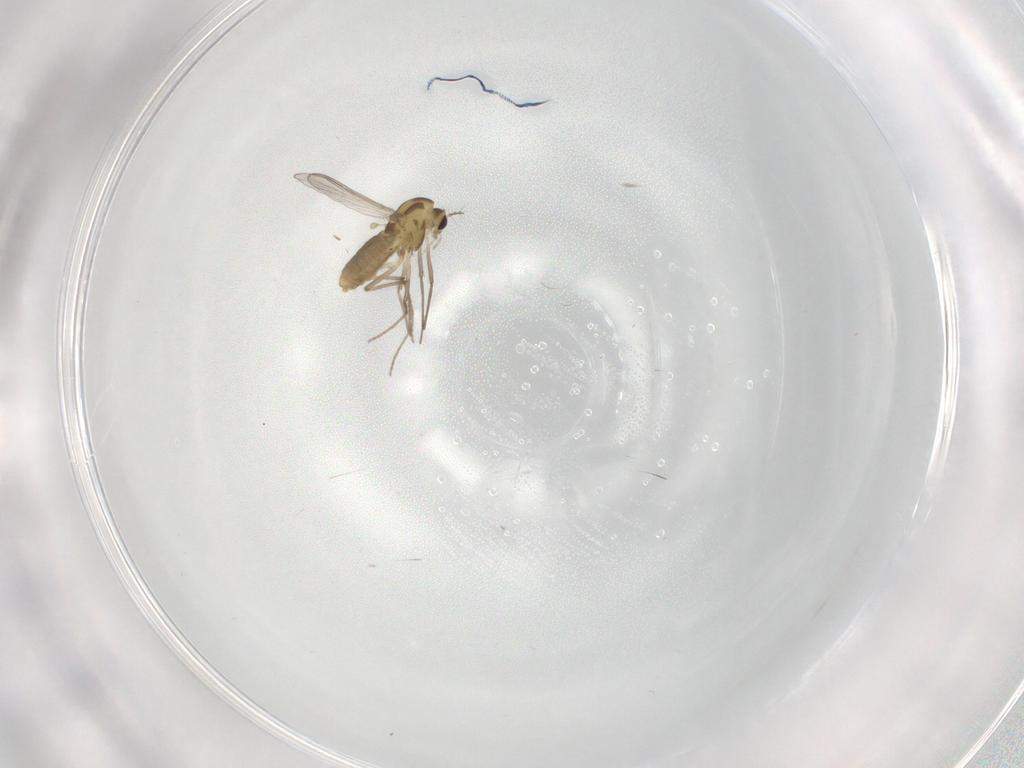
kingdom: Animalia
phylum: Arthropoda
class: Insecta
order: Diptera
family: Chironomidae
